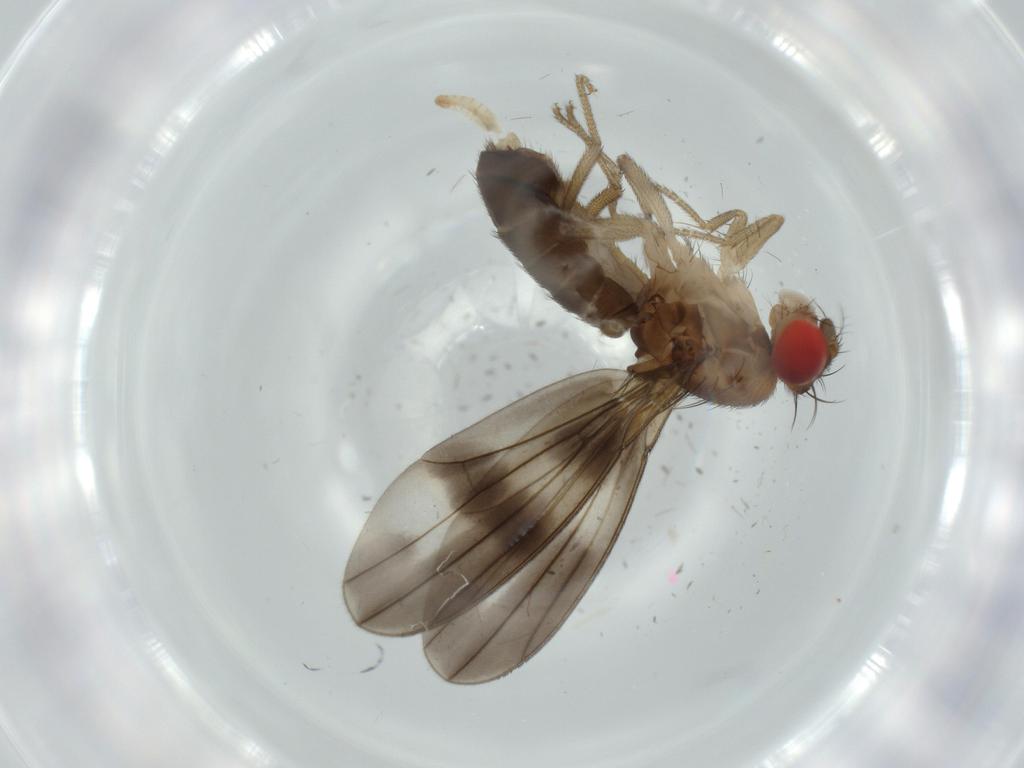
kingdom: Animalia
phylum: Arthropoda
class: Insecta
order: Diptera
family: Drosophilidae
